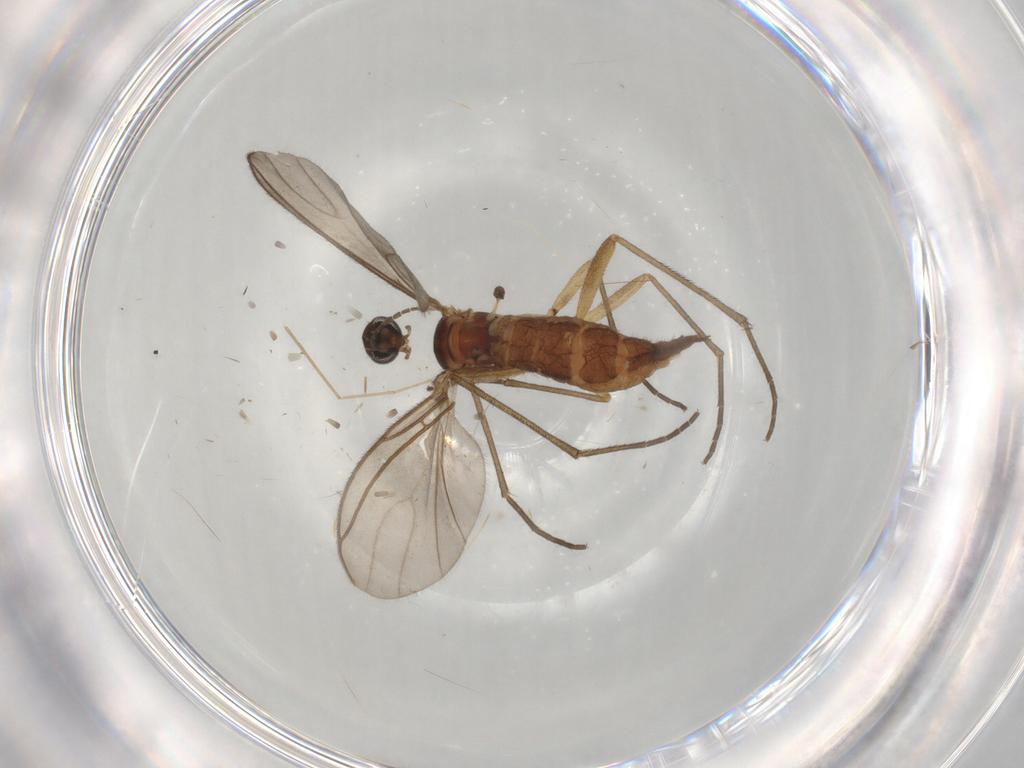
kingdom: Animalia
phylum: Arthropoda
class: Insecta
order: Diptera
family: Sciaridae
